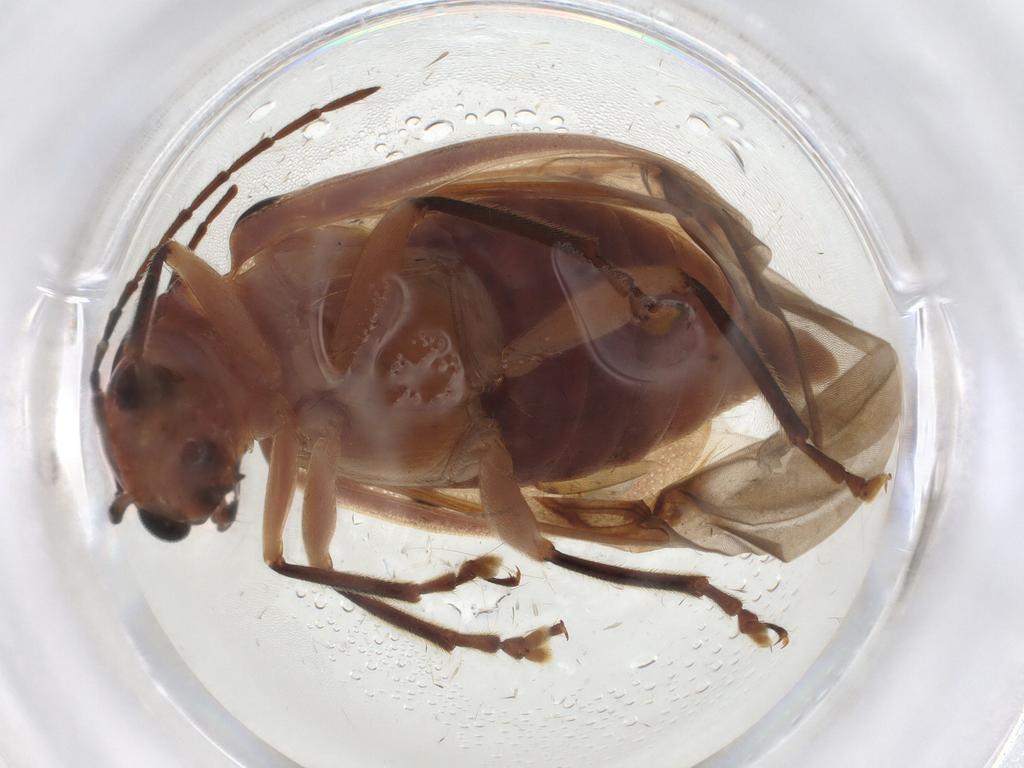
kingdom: Animalia
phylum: Arthropoda
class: Insecta
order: Coleoptera
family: Chrysomelidae
